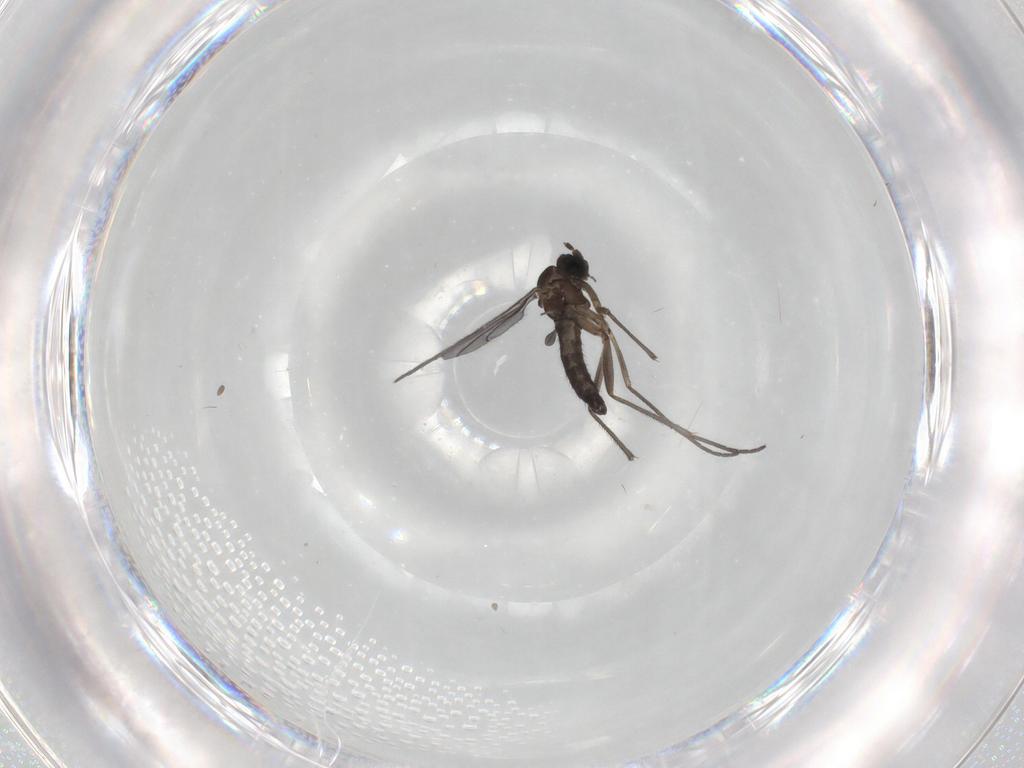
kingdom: Animalia
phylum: Arthropoda
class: Insecta
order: Diptera
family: Sciaridae
